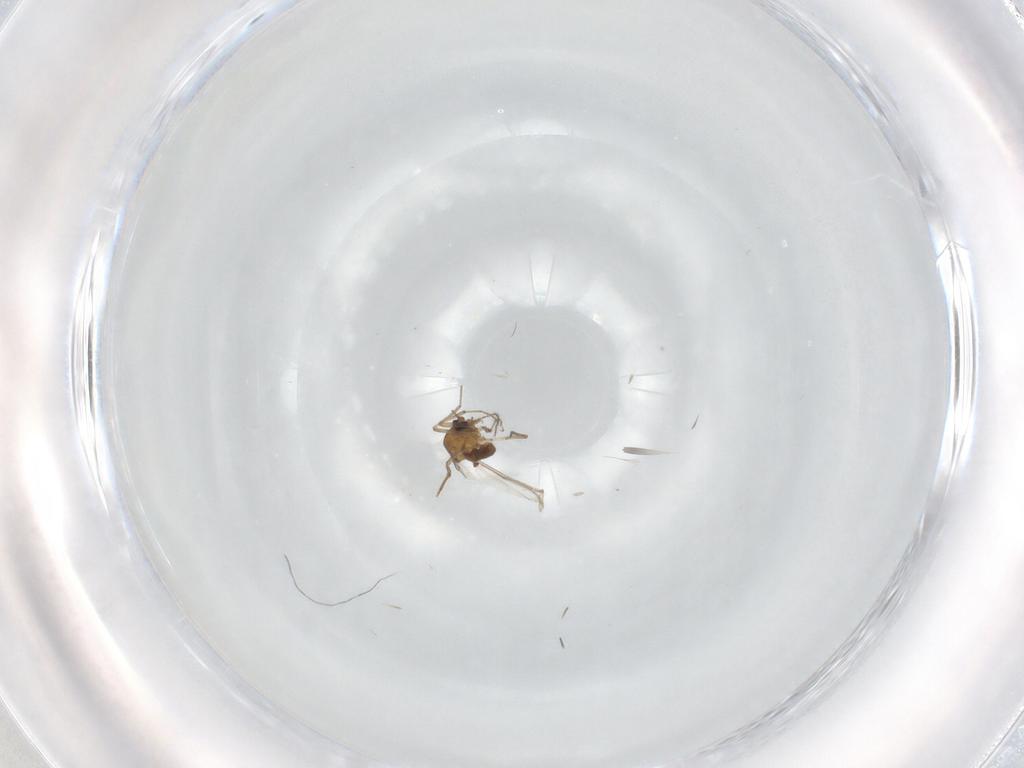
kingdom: Animalia
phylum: Arthropoda
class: Insecta
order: Diptera
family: Ceratopogonidae
